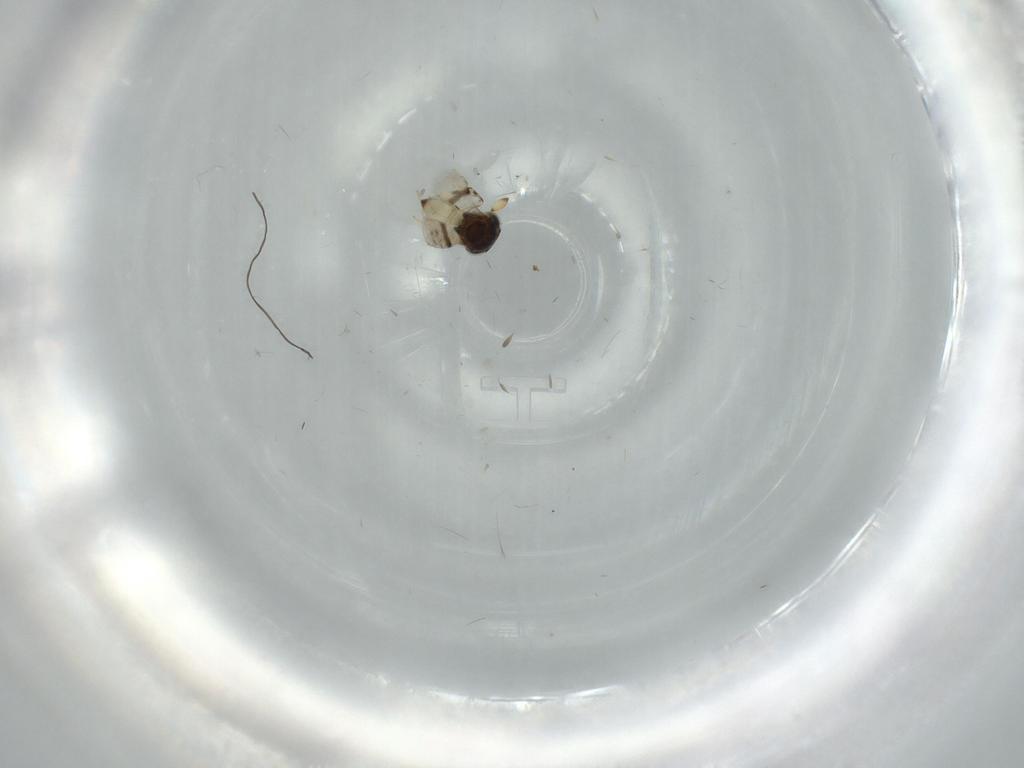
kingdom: Animalia
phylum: Arthropoda
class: Insecta
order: Hymenoptera
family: Scelionidae
